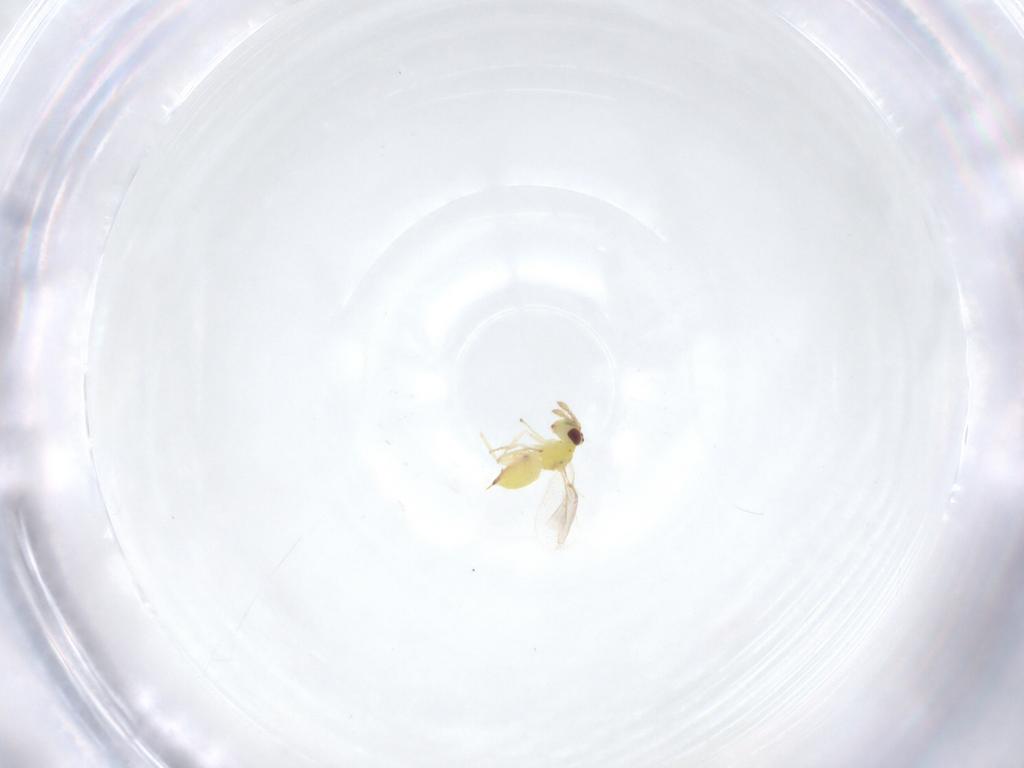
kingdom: Animalia
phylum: Arthropoda
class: Insecta
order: Hymenoptera
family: Eulophidae
